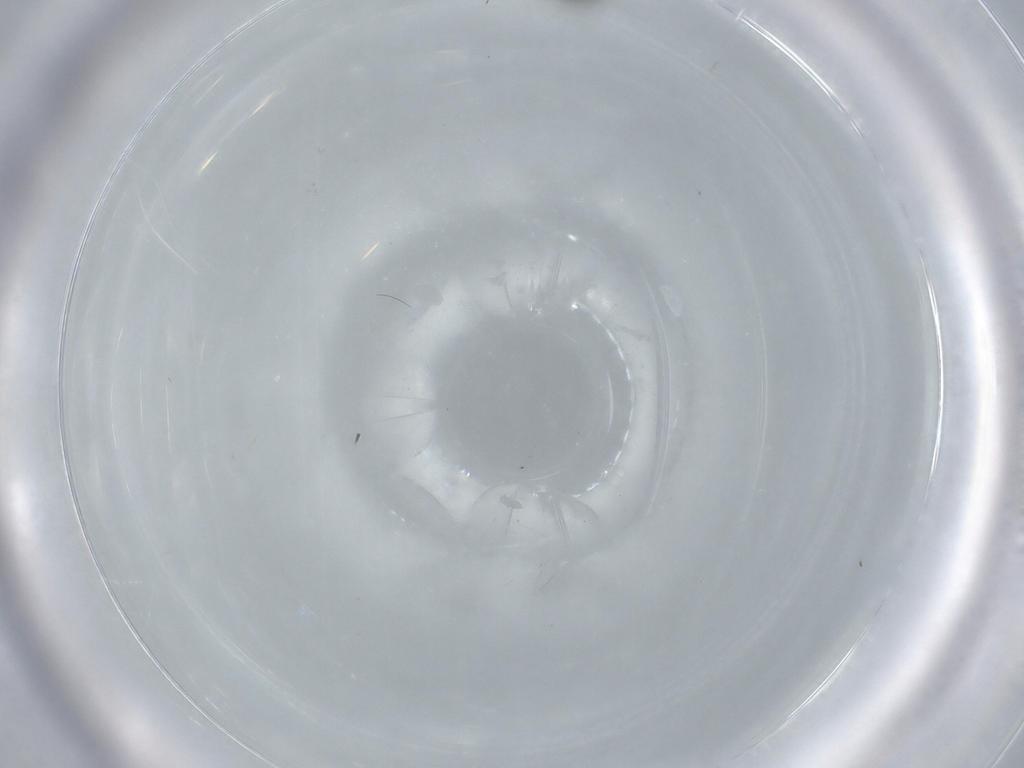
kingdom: Animalia
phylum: Arthropoda
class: Insecta
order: Hymenoptera
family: Signiphoridae
